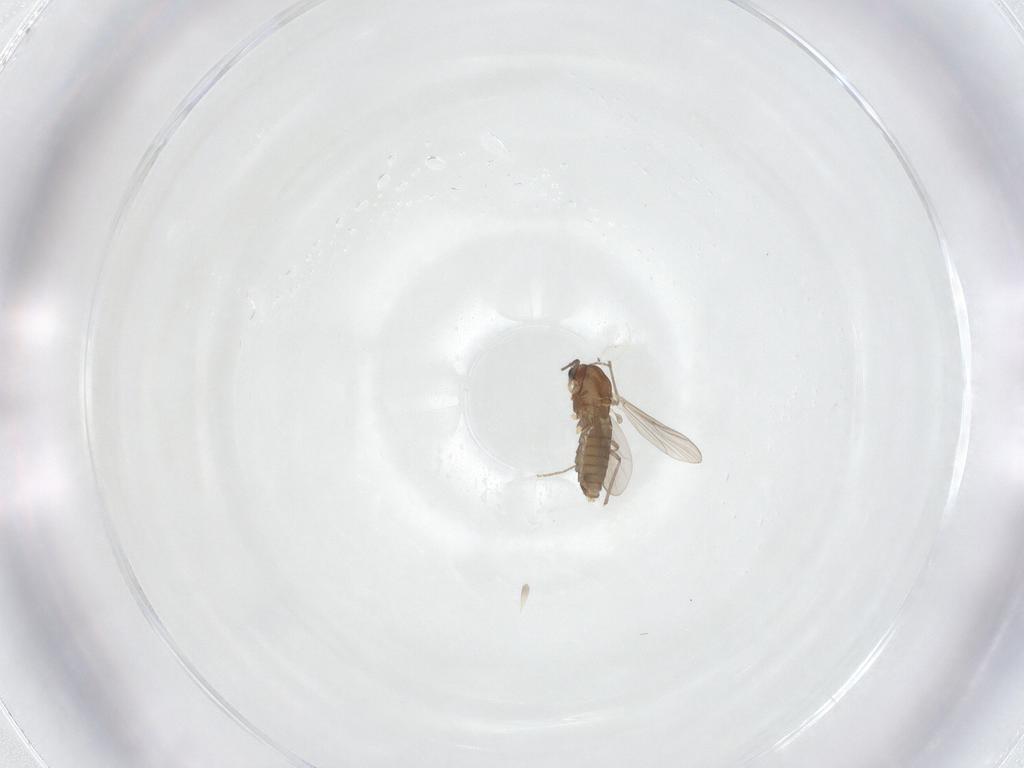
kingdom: Animalia
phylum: Arthropoda
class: Insecta
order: Diptera
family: Chironomidae
